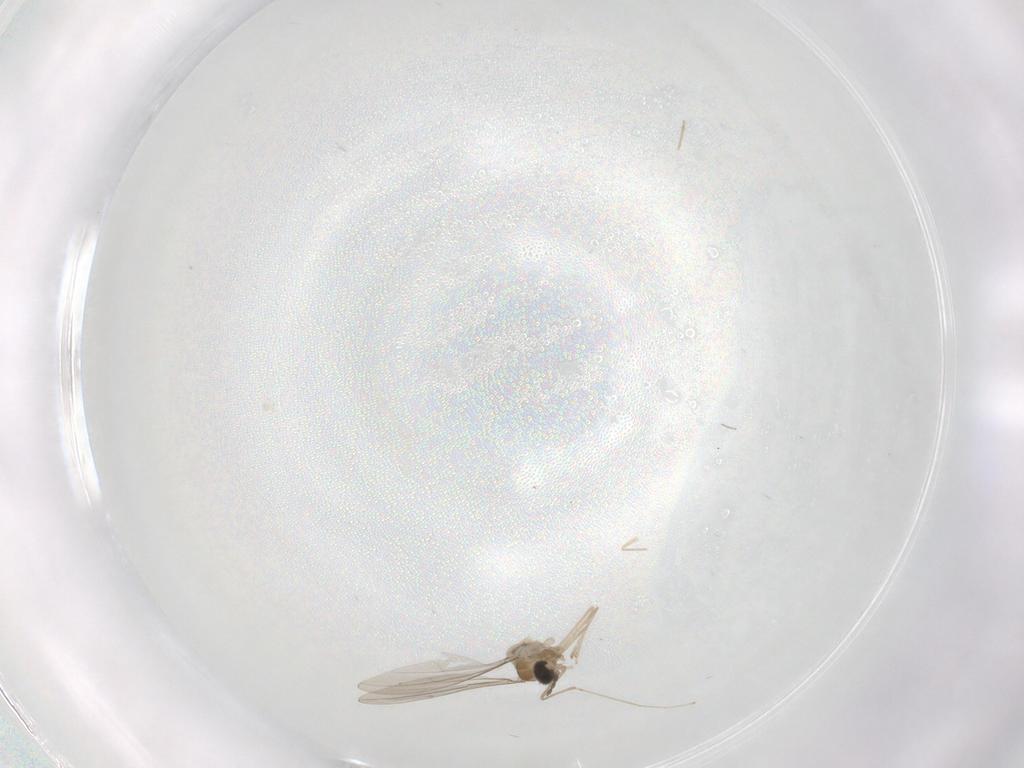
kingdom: Animalia
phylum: Arthropoda
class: Insecta
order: Diptera
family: Cecidomyiidae
